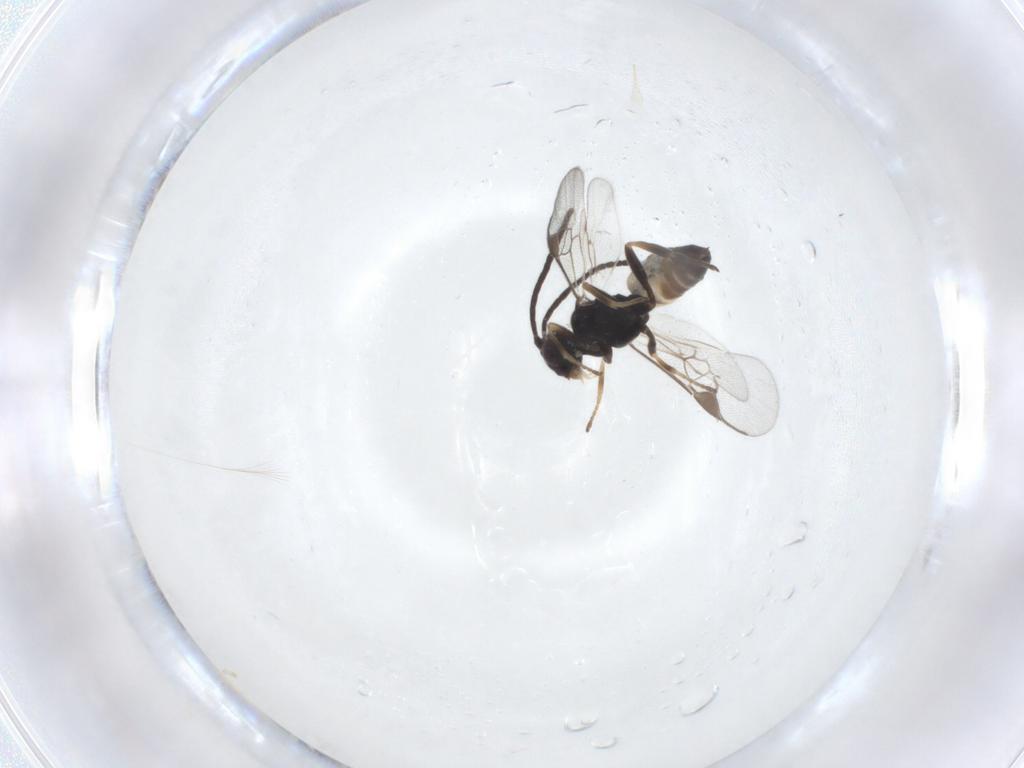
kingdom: Animalia
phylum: Arthropoda
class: Insecta
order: Hymenoptera
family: Braconidae
